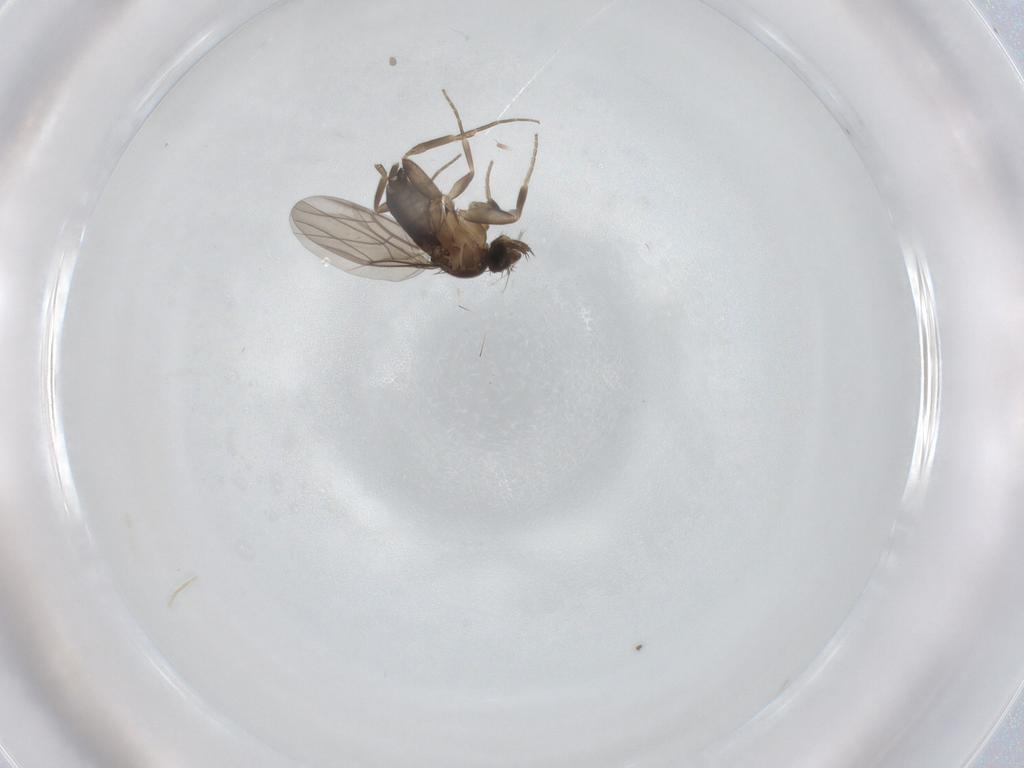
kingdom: Animalia
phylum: Arthropoda
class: Insecta
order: Diptera
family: Phoridae
